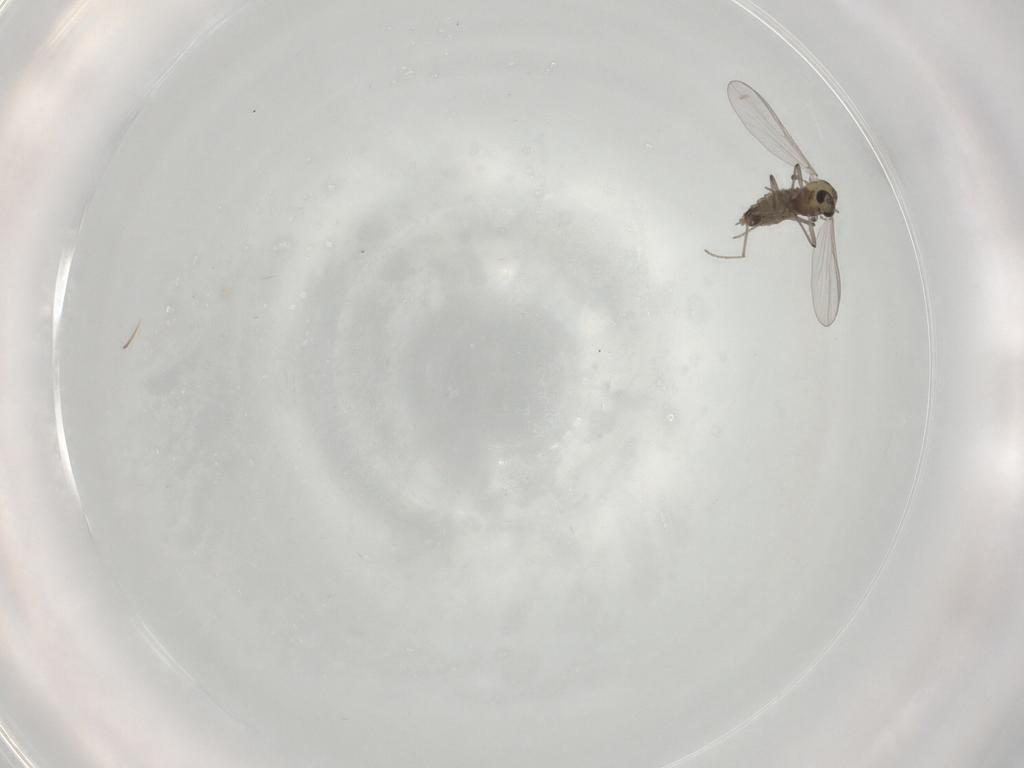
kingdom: Animalia
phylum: Arthropoda
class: Insecta
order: Diptera
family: Chironomidae
